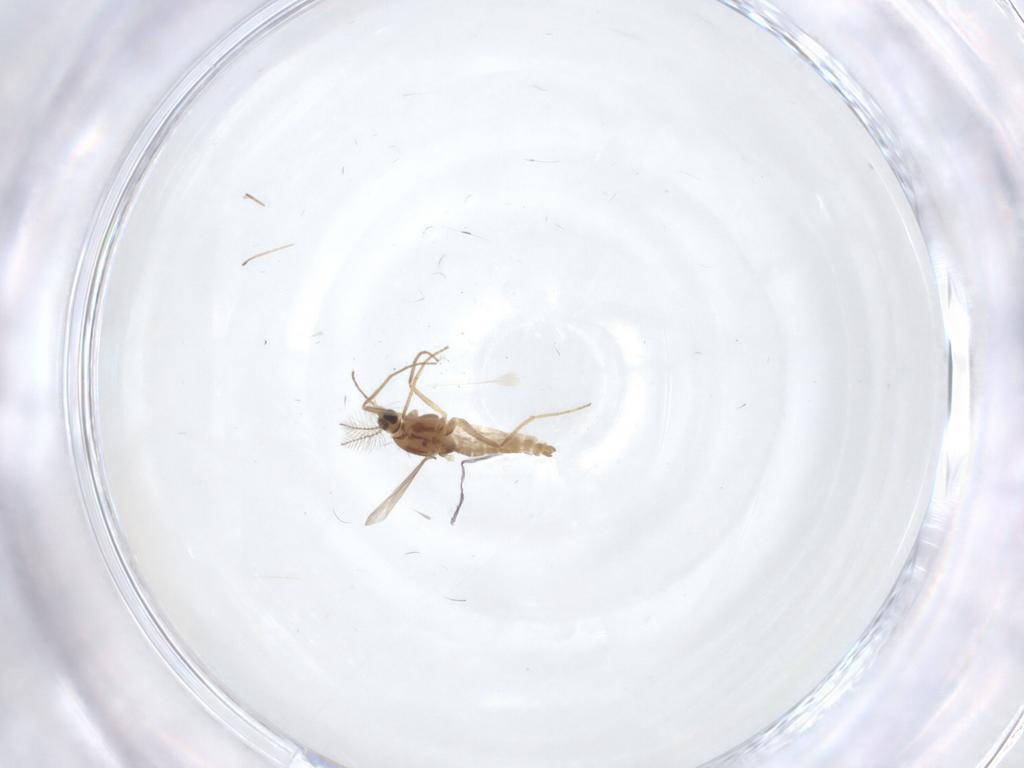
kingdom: Animalia
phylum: Arthropoda
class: Insecta
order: Diptera
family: Chironomidae
